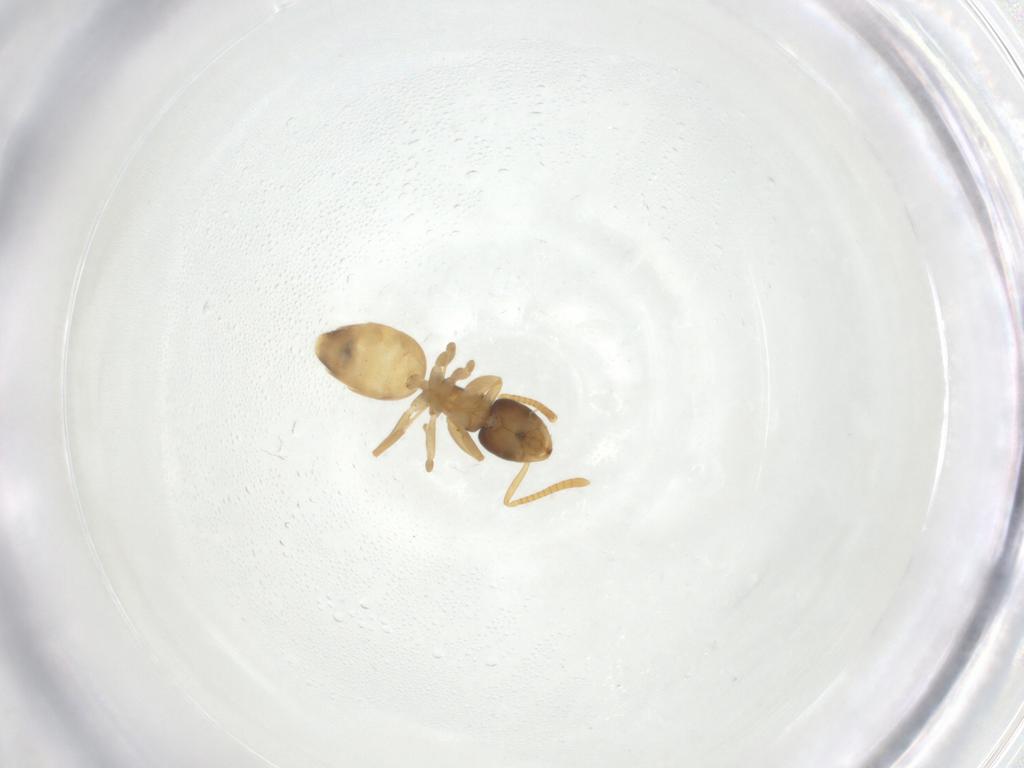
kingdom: Animalia
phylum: Arthropoda
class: Insecta
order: Hymenoptera
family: Formicidae
